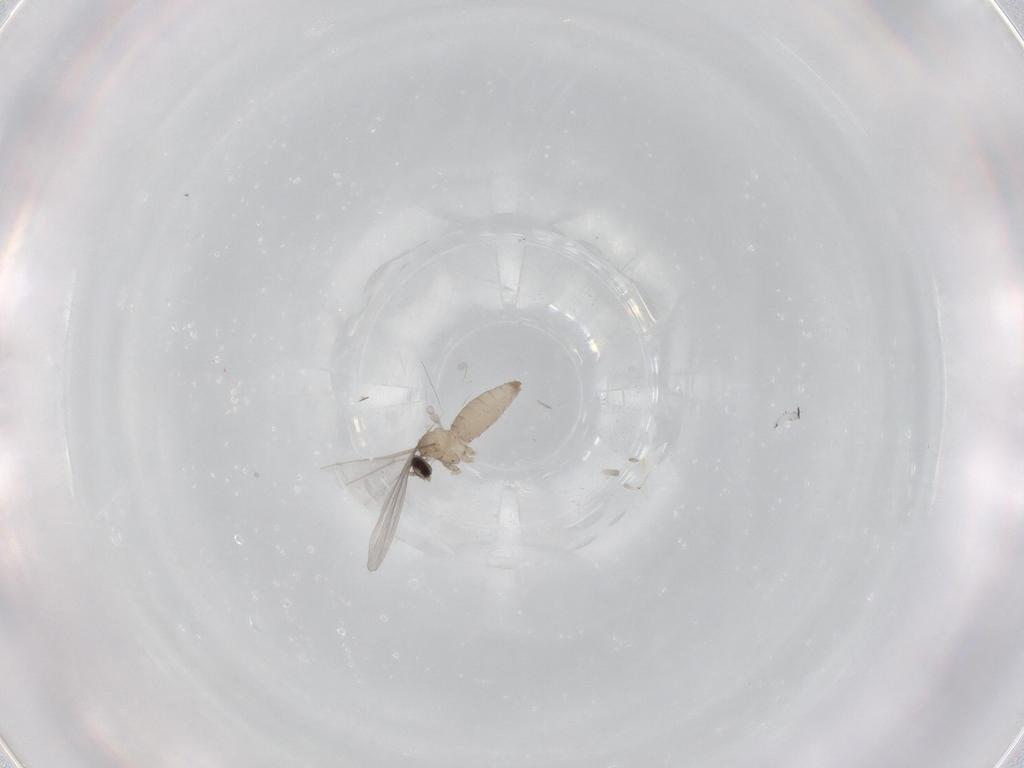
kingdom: Animalia
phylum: Arthropoda
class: Insecta
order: Diptera
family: Cecidomyiidae
